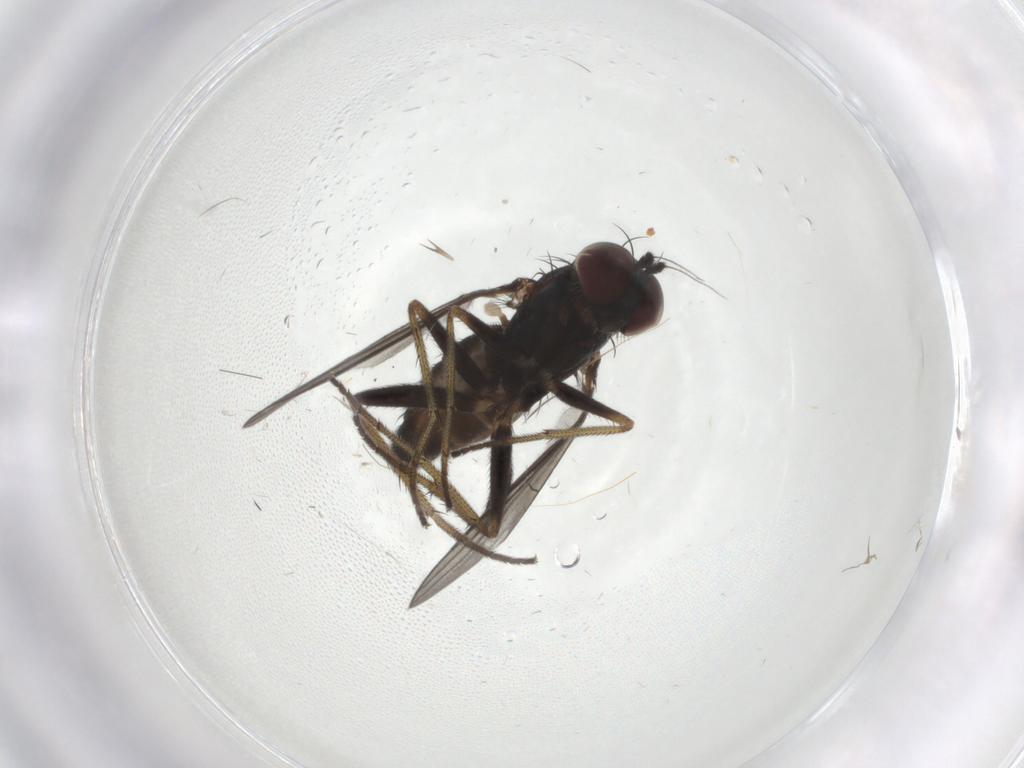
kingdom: Animalia
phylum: Arthropoda
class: Insecta
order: Diptera
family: Dolichopodidae
